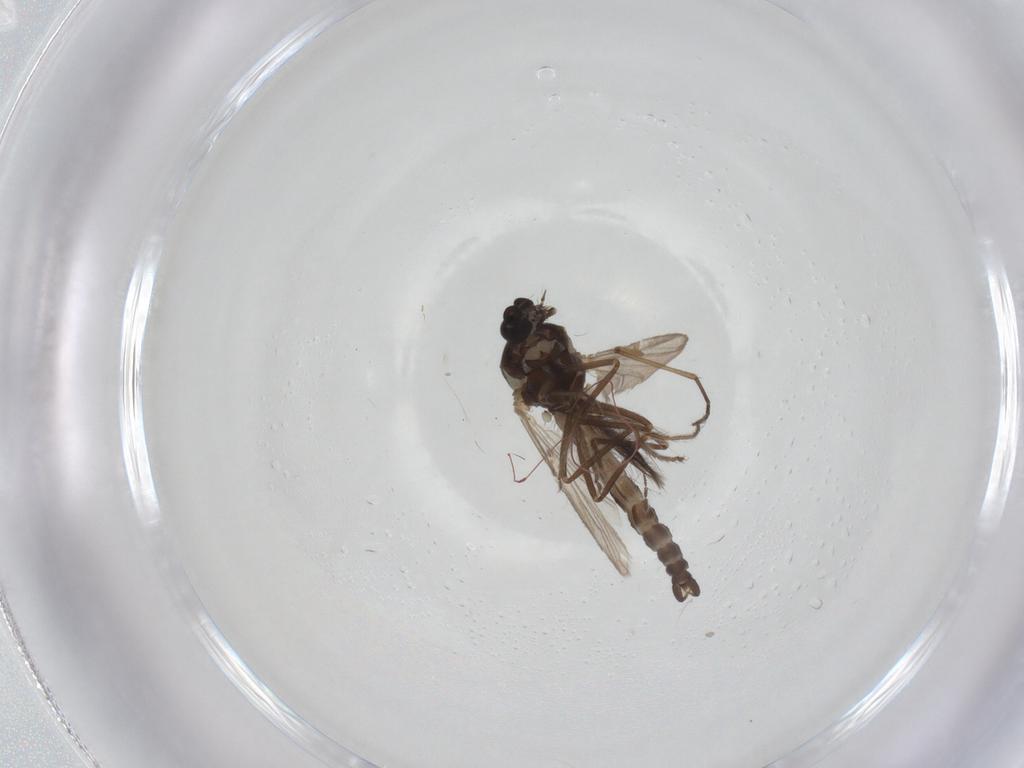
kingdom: Animalia
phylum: Arthropoda
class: Insecta
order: Diptera
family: Ceratopogonidae
